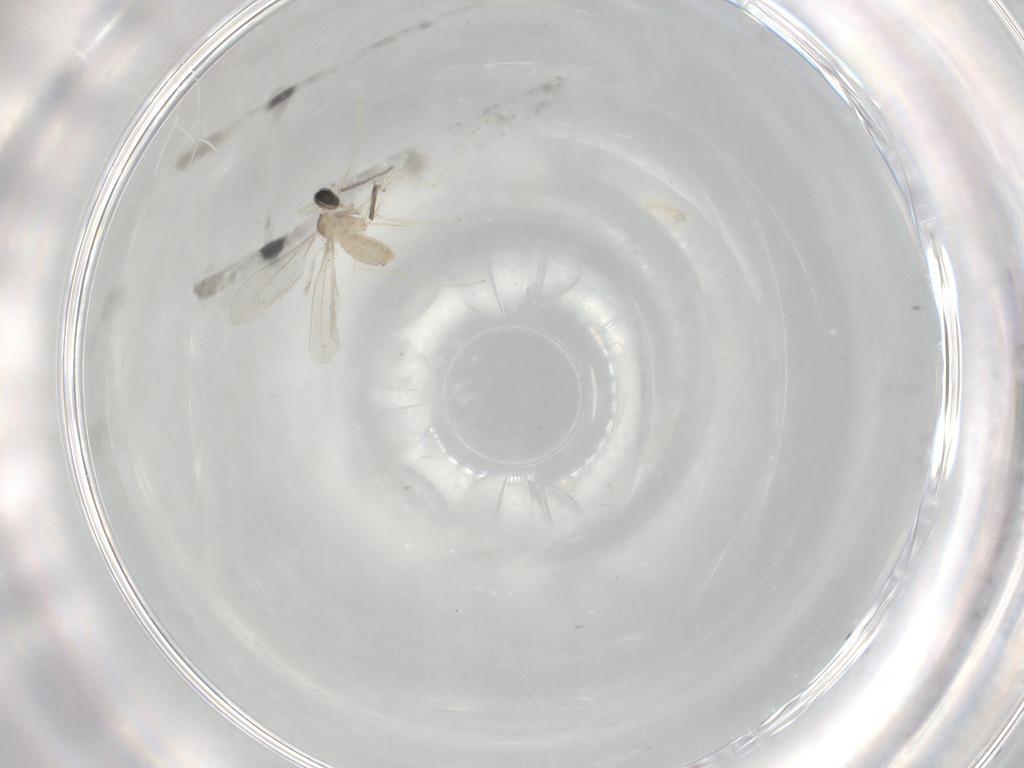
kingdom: Animalia
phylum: Arthropoda
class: Insecta
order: Diptera
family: Cecidomyiidae
